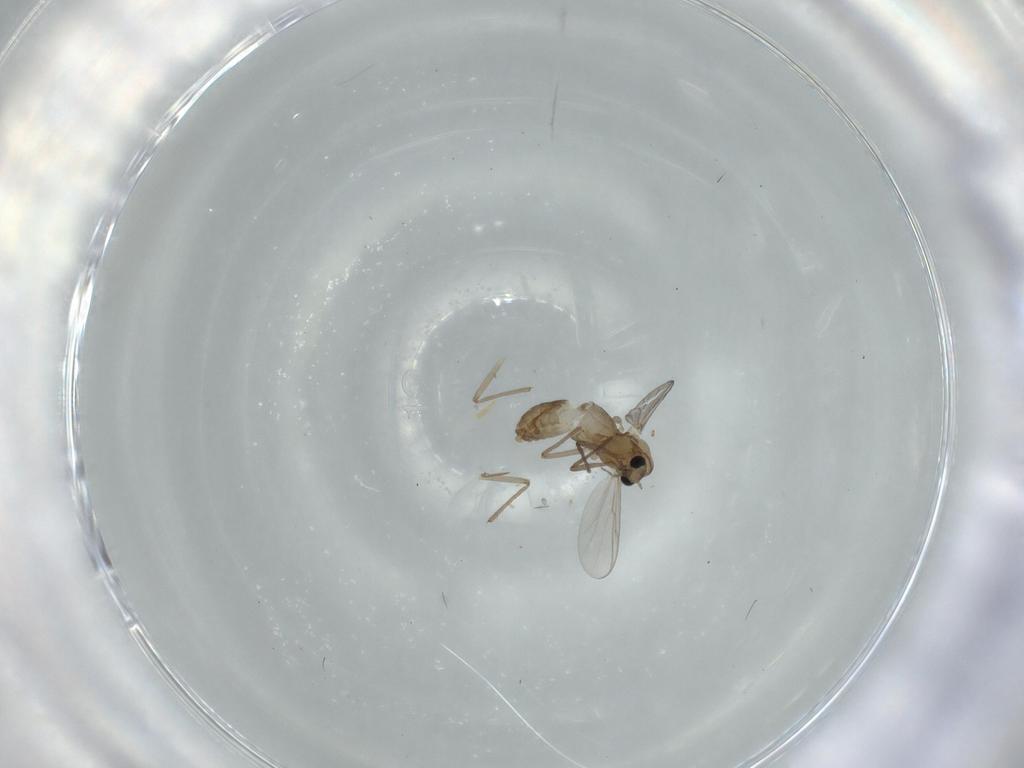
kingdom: Animalia
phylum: Arthropoda
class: Insecta
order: Diptera
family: Chironomidae
